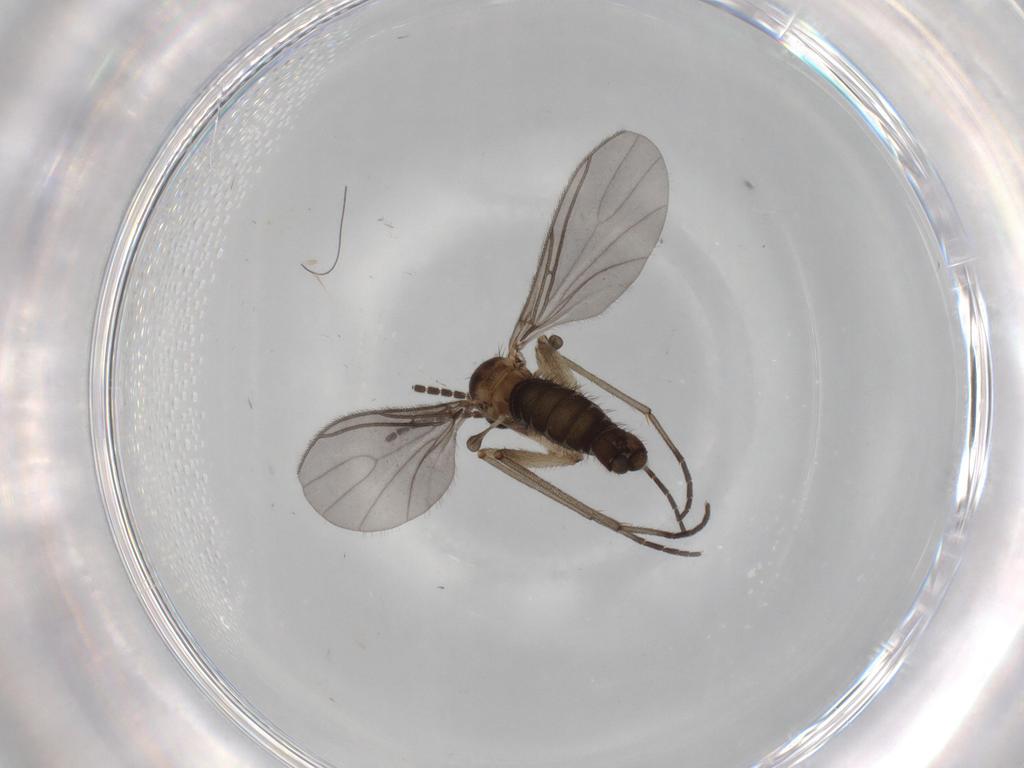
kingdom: Animalia
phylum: Arthropoda
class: Insecta
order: Diptera
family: Sciaridae
